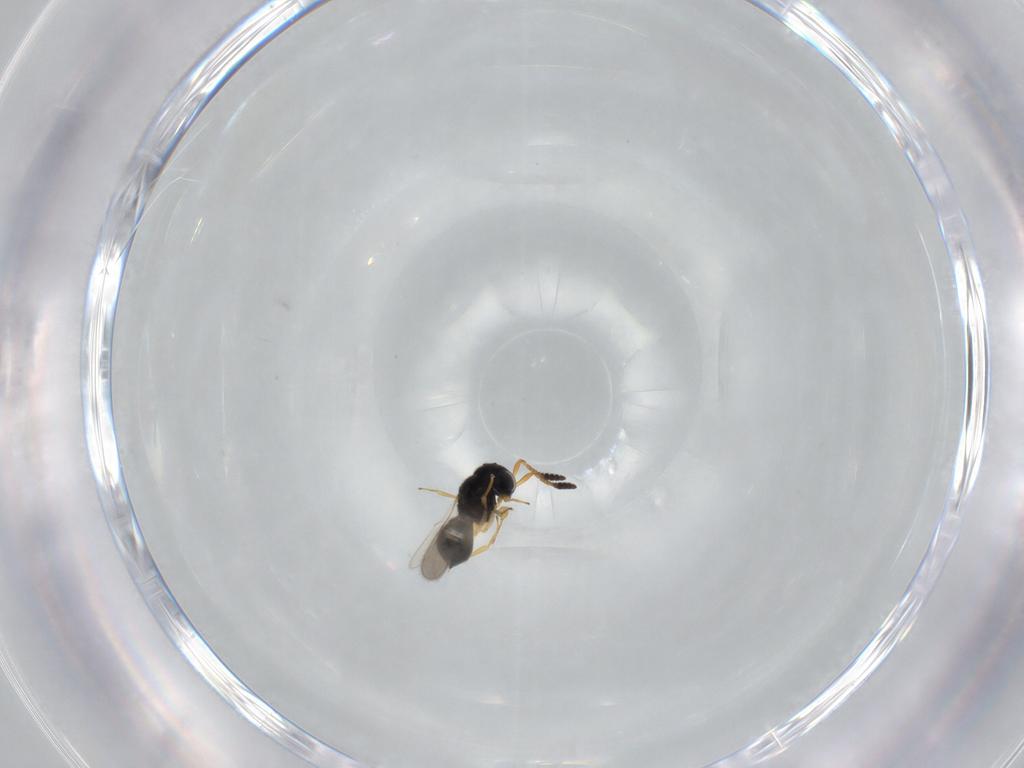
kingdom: Animalia
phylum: Arthropoda
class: Insecta
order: Hymenoptera
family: Scelionidae
